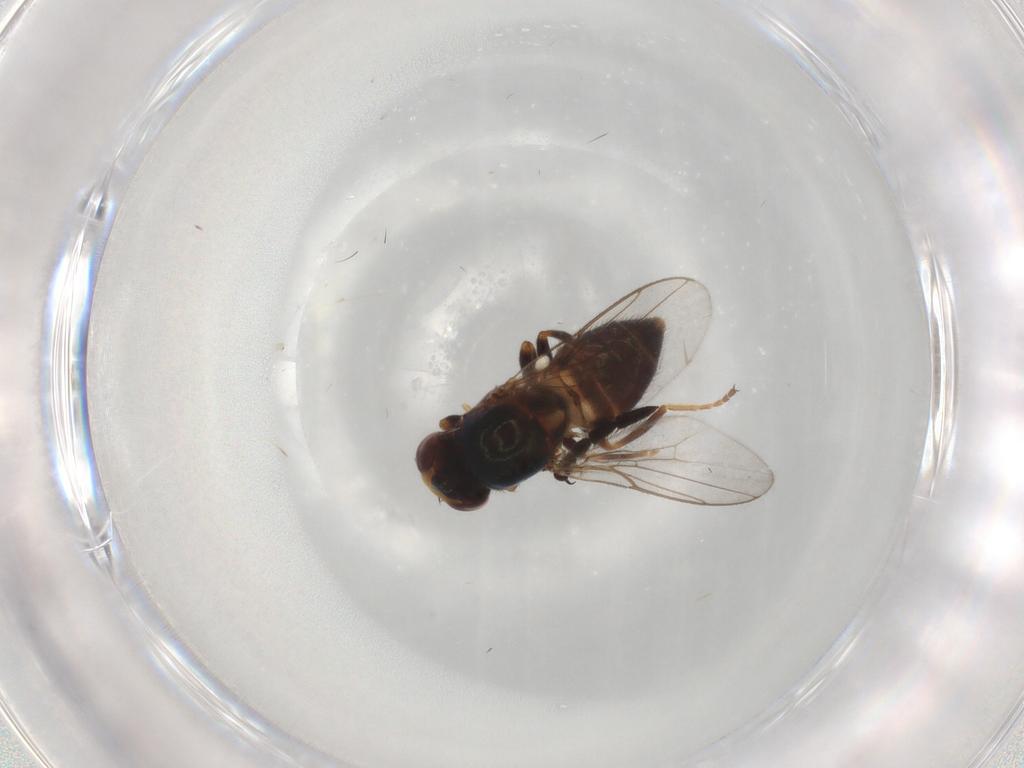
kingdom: Animalia
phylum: Arthropoda
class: Insecta
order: Diptera
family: Chloropidae
